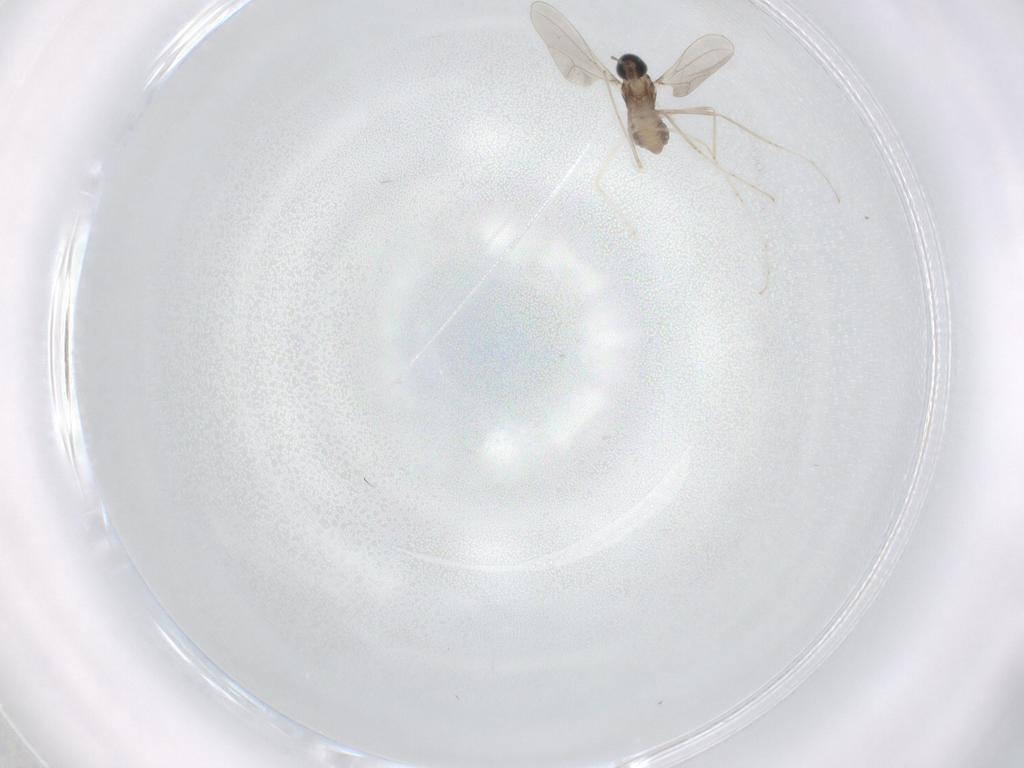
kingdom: Animalia
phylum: Arthropoda
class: Insecta
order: Diptera
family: Cecidomyiidae
